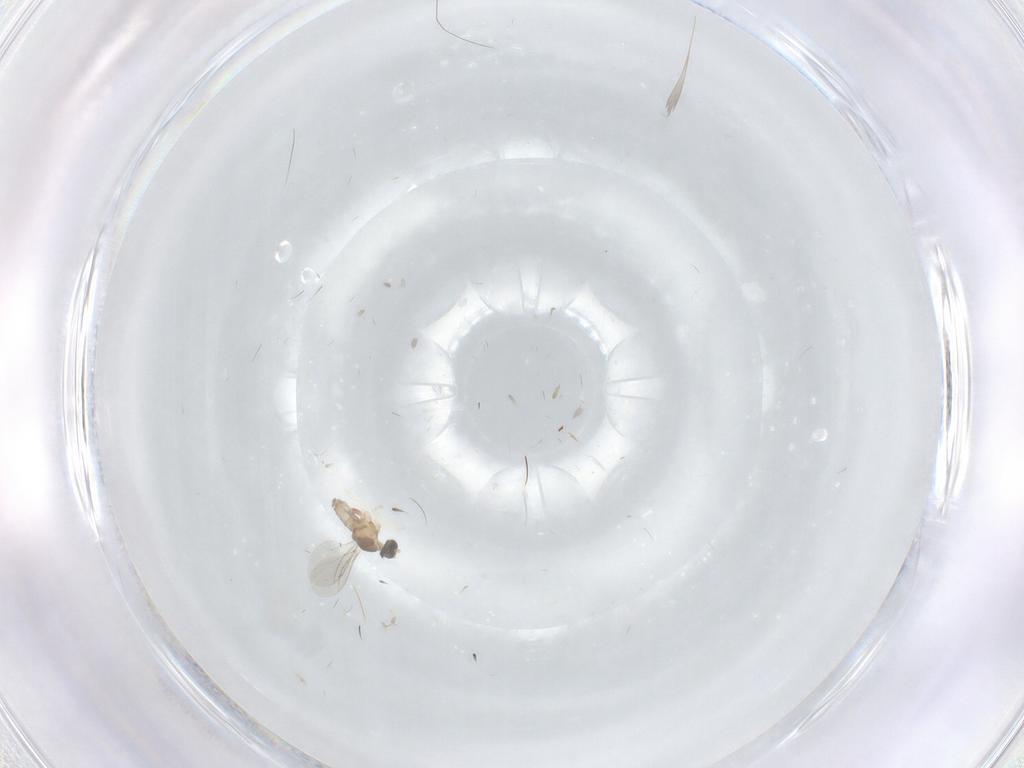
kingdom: Animalia
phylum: Arthropoda
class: Insecta
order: Diptera
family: Cecidomyiidae
